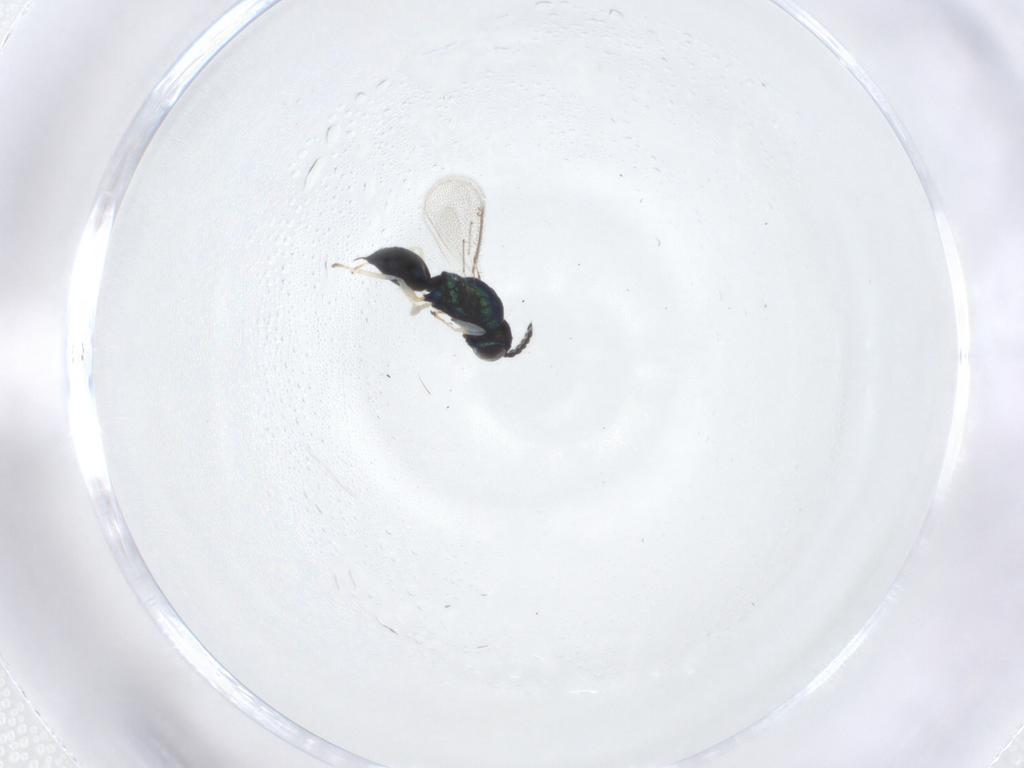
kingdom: Animalia
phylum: Arthropoda
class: Insecta
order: Hymenoptera
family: Eulophidae
